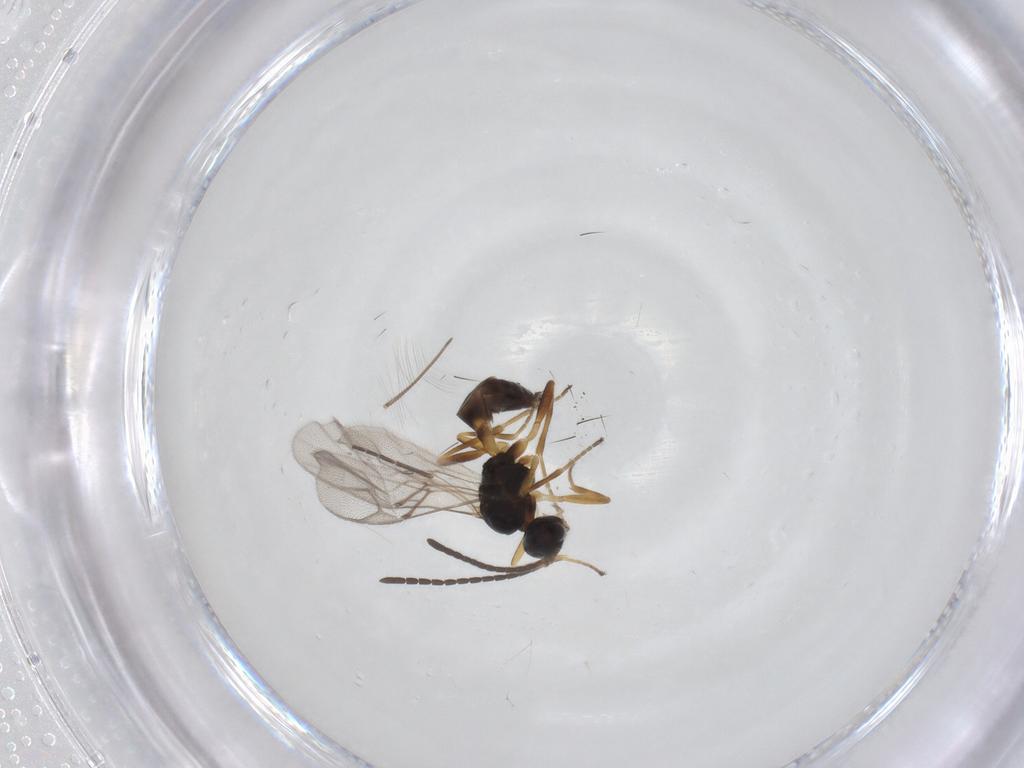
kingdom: Animalia
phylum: Arthropoda
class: Insecta
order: Hymenoptera
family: Braconidae
